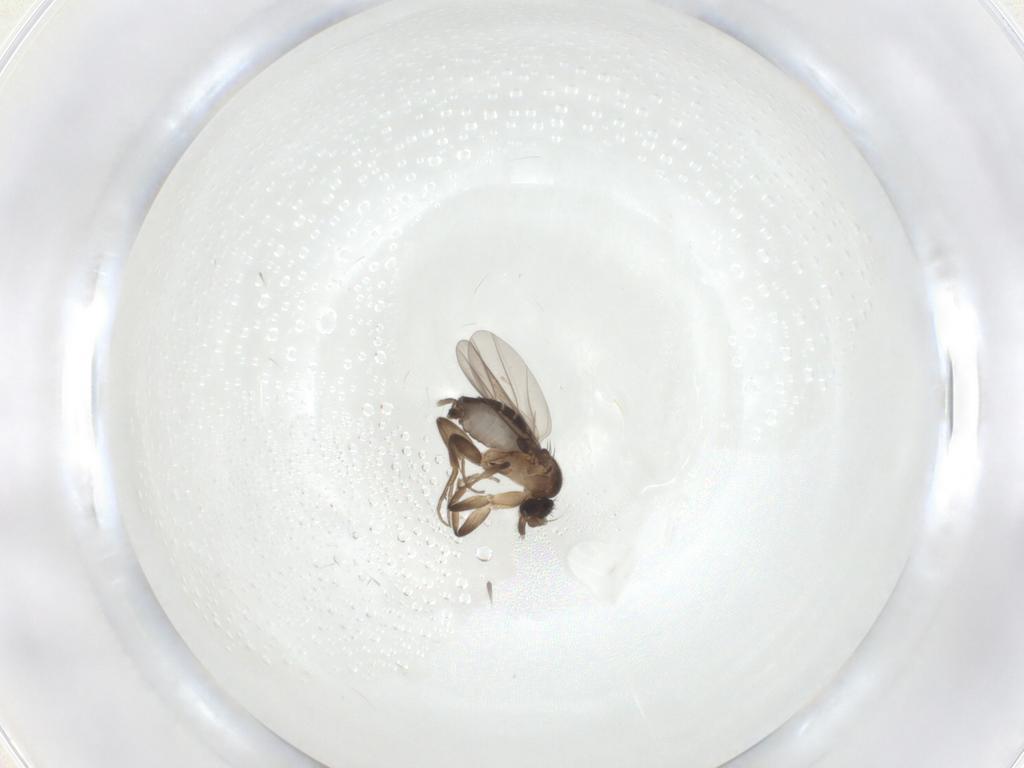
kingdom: Animalia
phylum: Arthropoda
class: Insecta
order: Diptera
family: Phoridae
